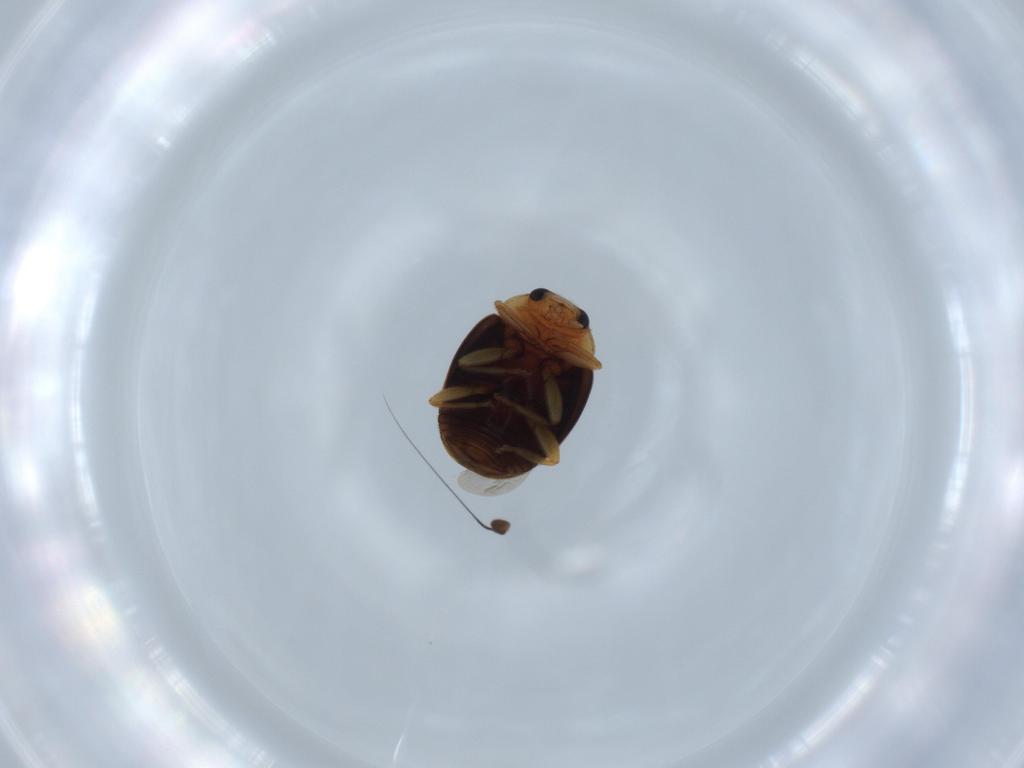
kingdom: Animalia
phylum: Arthropoda
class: Insecta
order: Coleoptera
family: Coccinellidae
